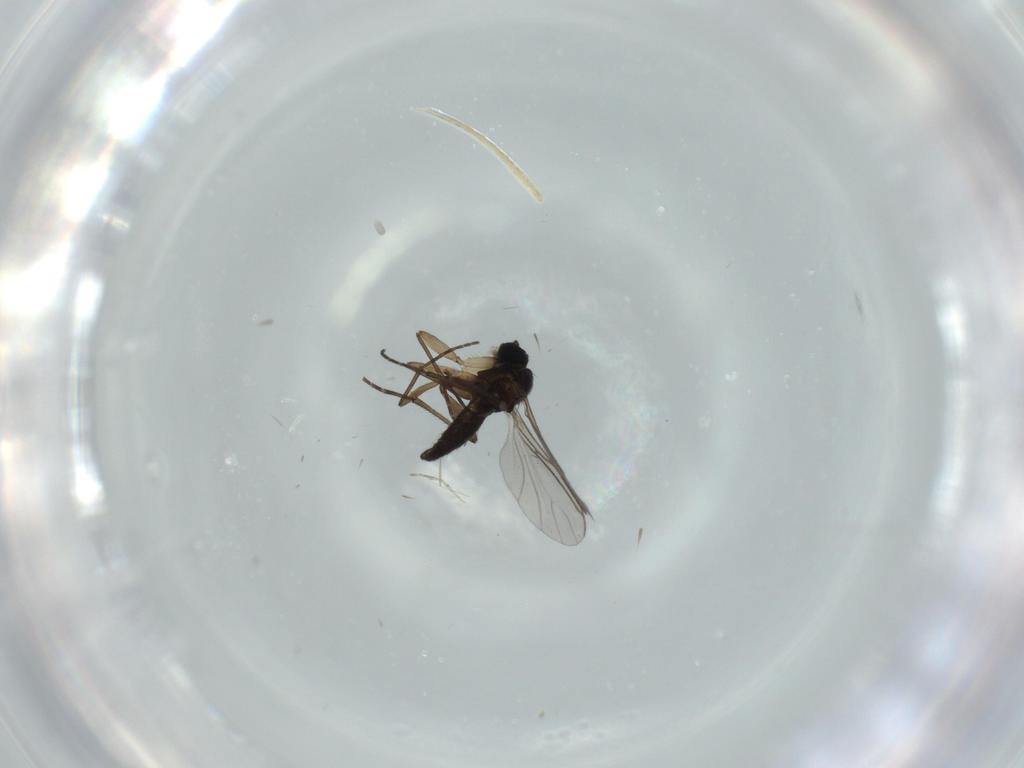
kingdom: Animalia
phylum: Arthropoda
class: Insecta
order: Diptera
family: Sciaridae
